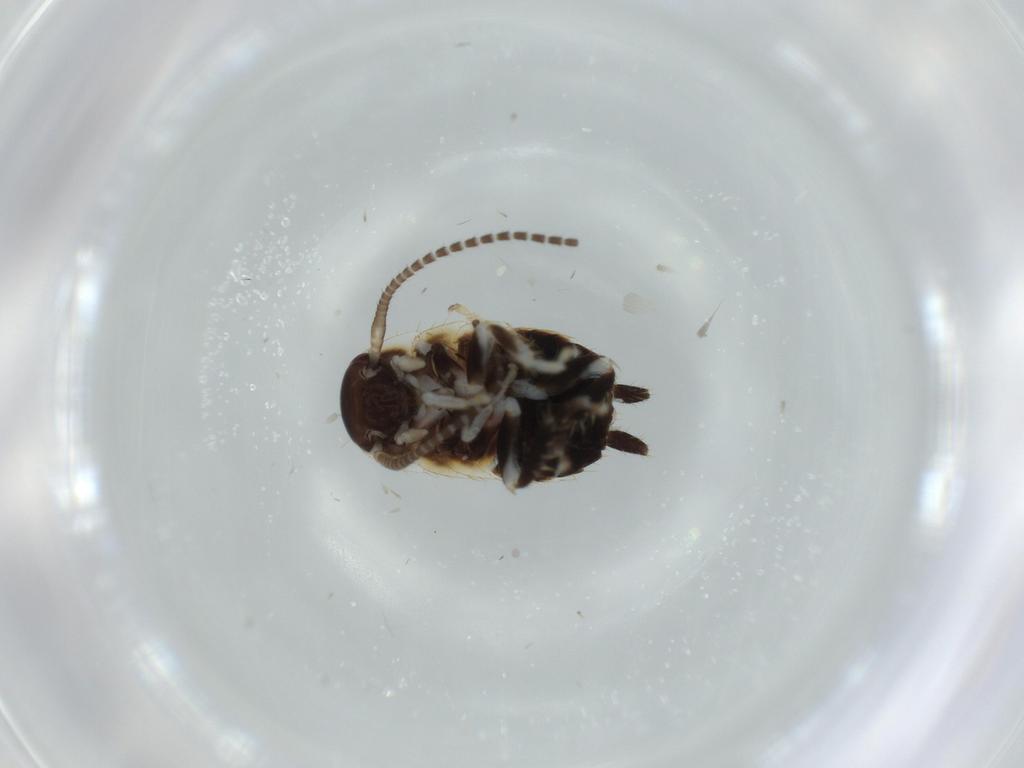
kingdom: Animalia
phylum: Arthropoda
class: Insecta
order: Blattodea
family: Ectobiidae
